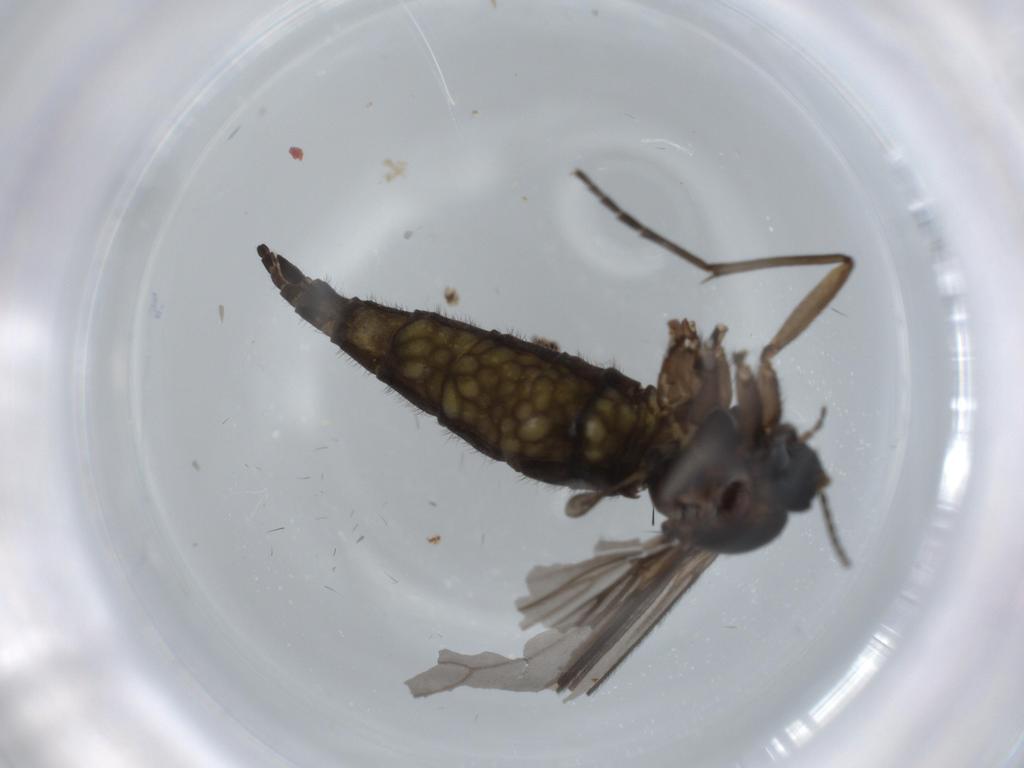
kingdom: Animalia
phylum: Arthropoda
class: Insecta
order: Diptera
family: Sciaridae
